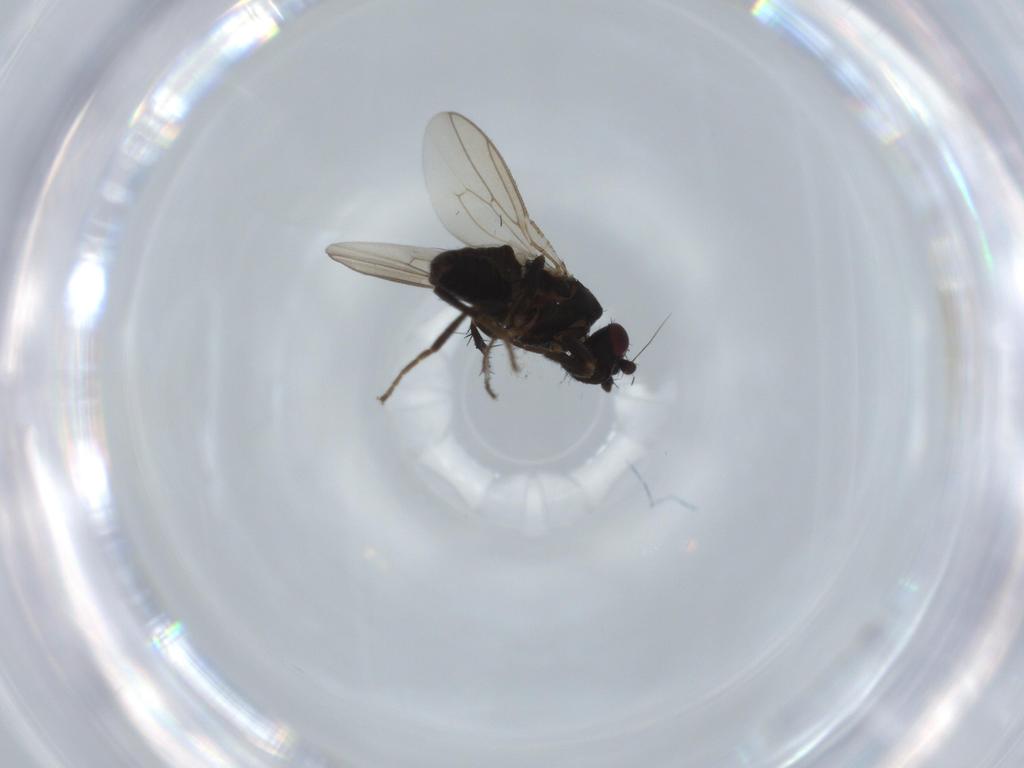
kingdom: Animalia
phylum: Arthropoda
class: Insecta
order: Diptera
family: Sphaeroceridae
